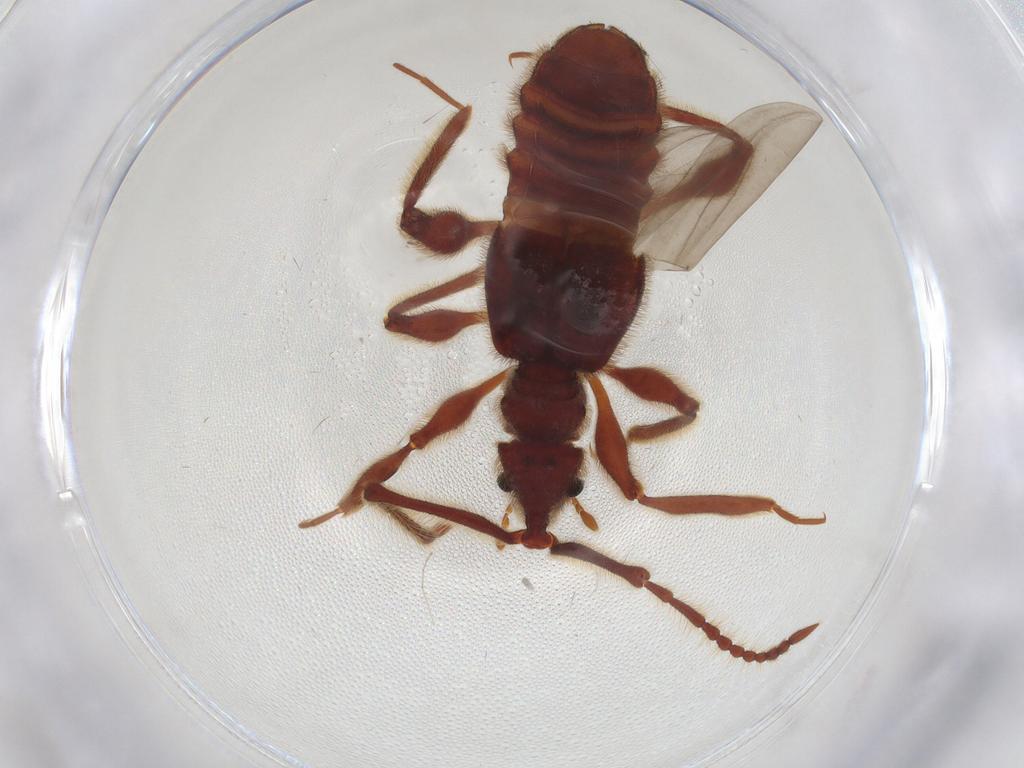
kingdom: Animalia
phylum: Arthropoda
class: Insecta
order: Coleoptera
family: Staphylinidae
